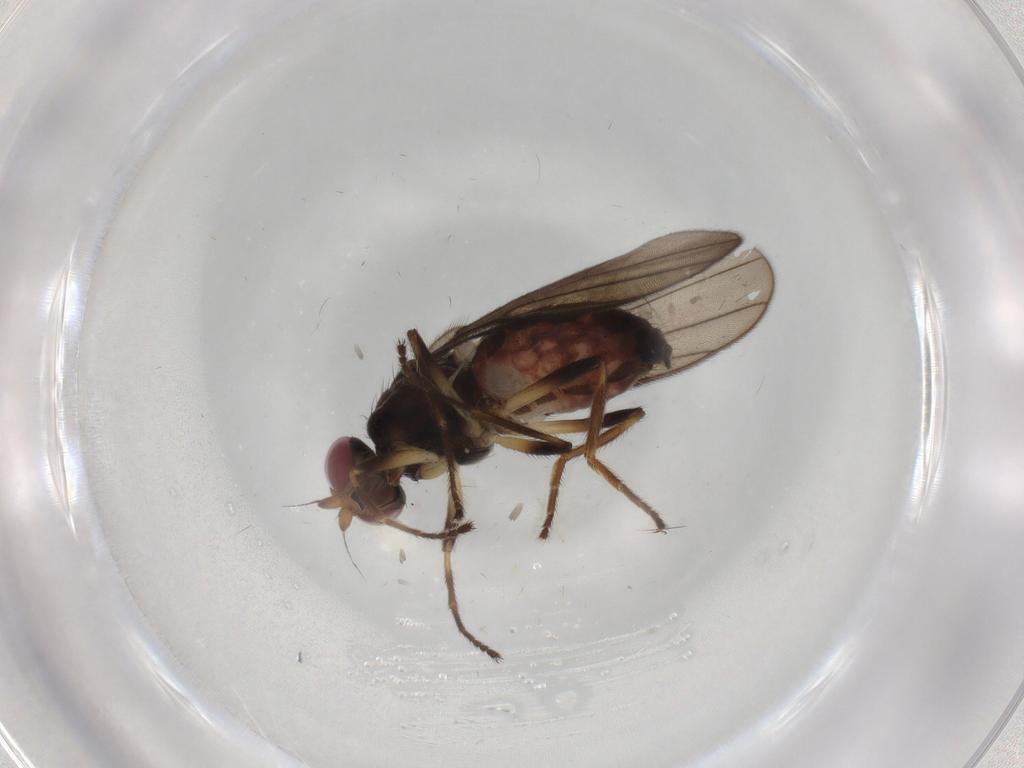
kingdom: Animalia
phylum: Arthropoda
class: Insecta
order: Diptera
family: Chloropidae
